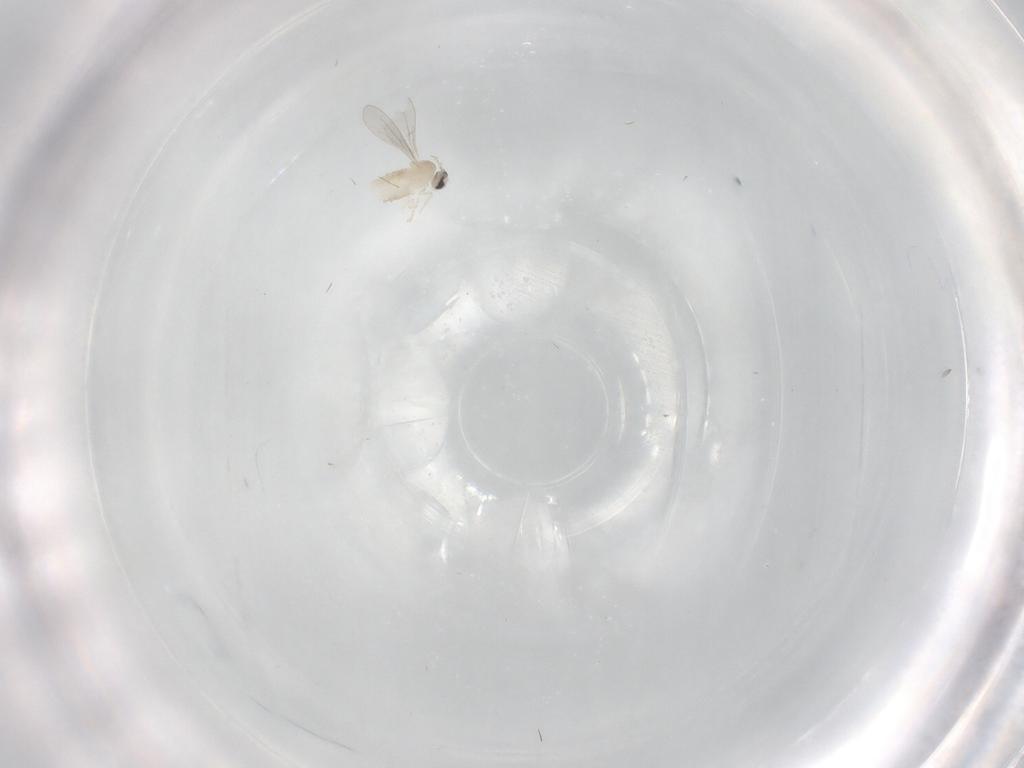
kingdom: Animalia
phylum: Arthropoda
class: Insecta
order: Diptera
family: Cecidomyiidae
